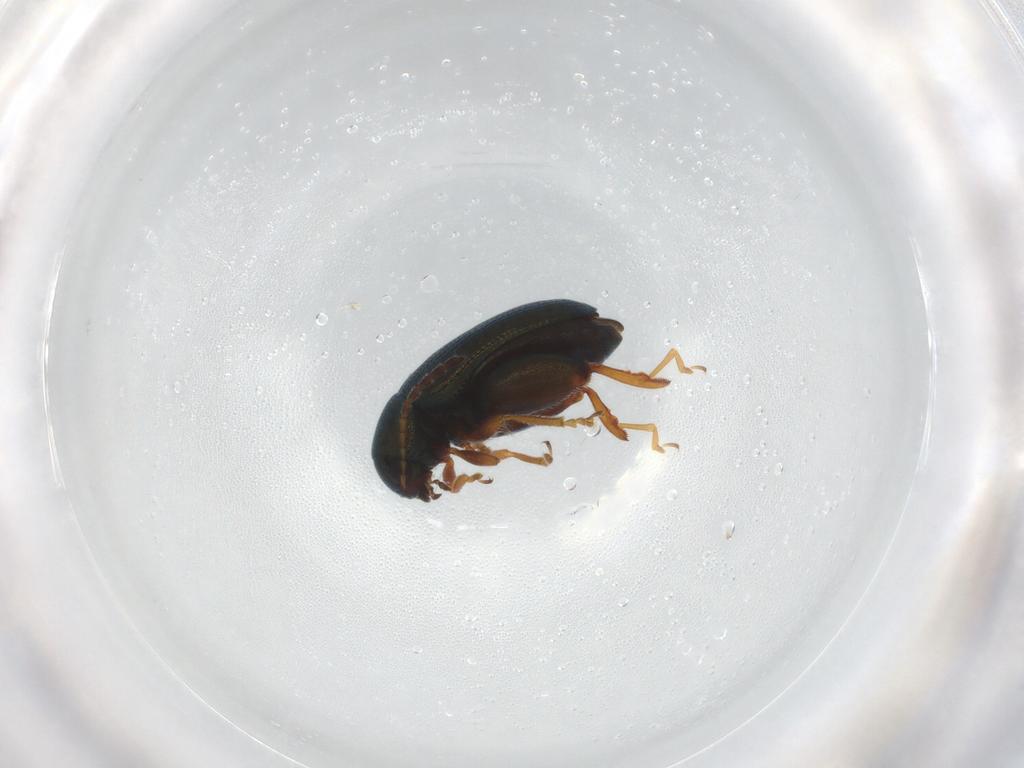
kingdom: Animalia
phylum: Arthropoda
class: Insecta
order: Coleoptera
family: Chrysomelidae
